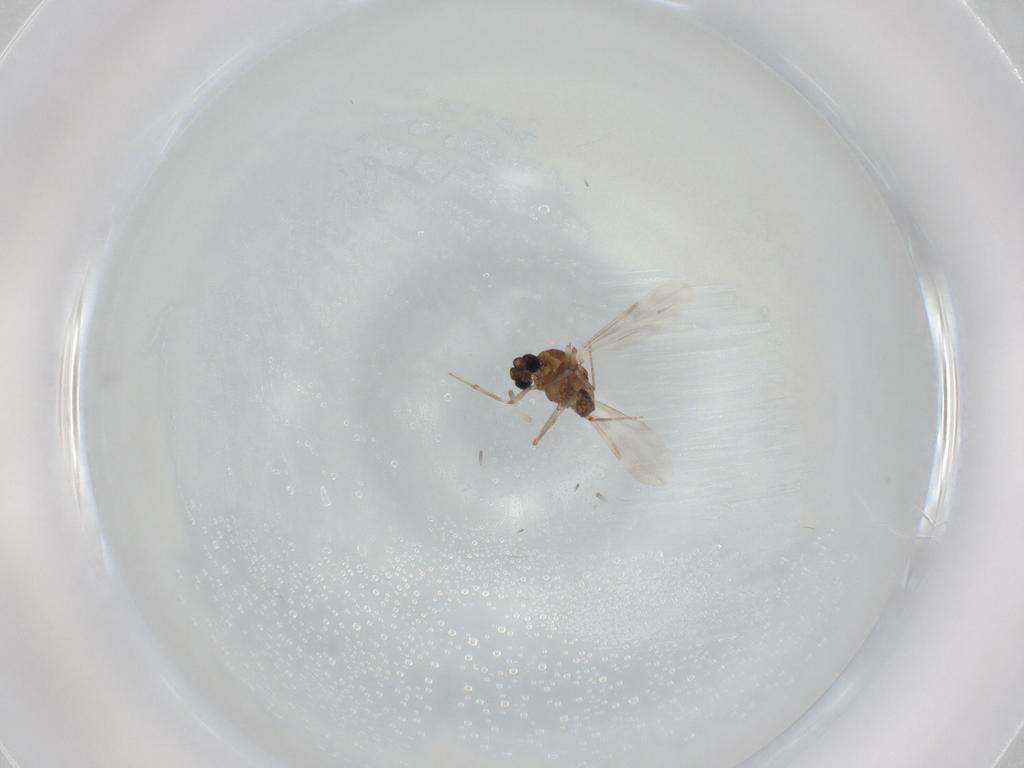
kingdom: Animalia
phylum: Arthropoda
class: Insecta
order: Diptera
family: Ceratopogonidae
